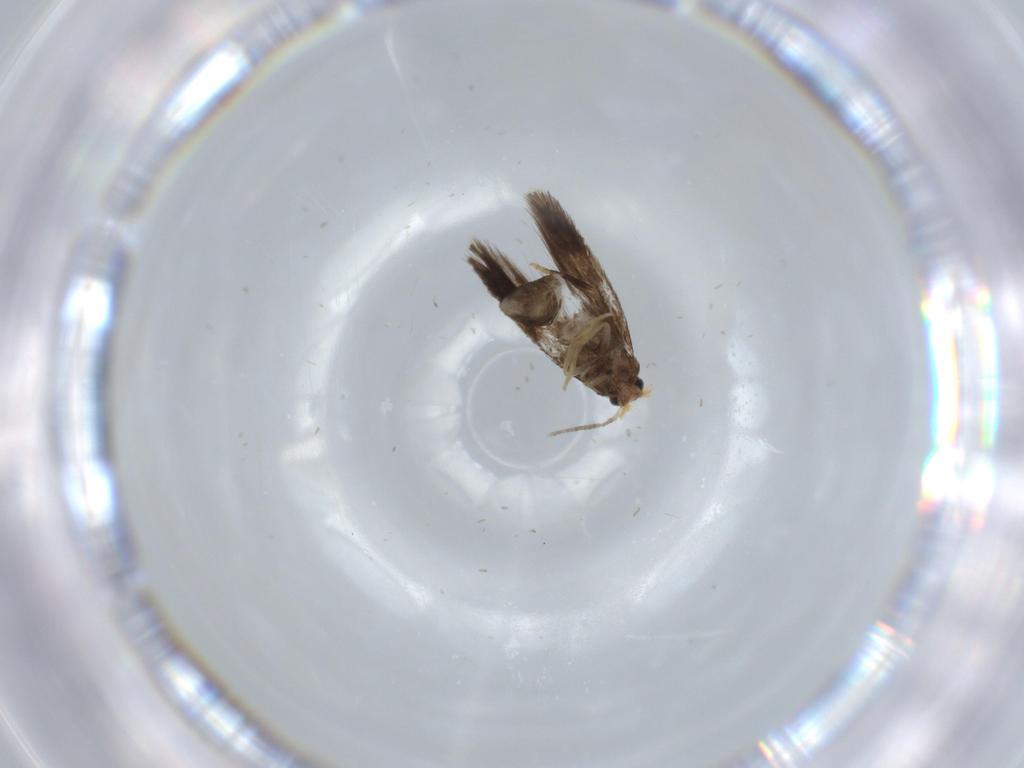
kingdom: Animalia
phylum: Arthropoda
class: Insecta
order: Lepidoptera
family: Nepticulidae
